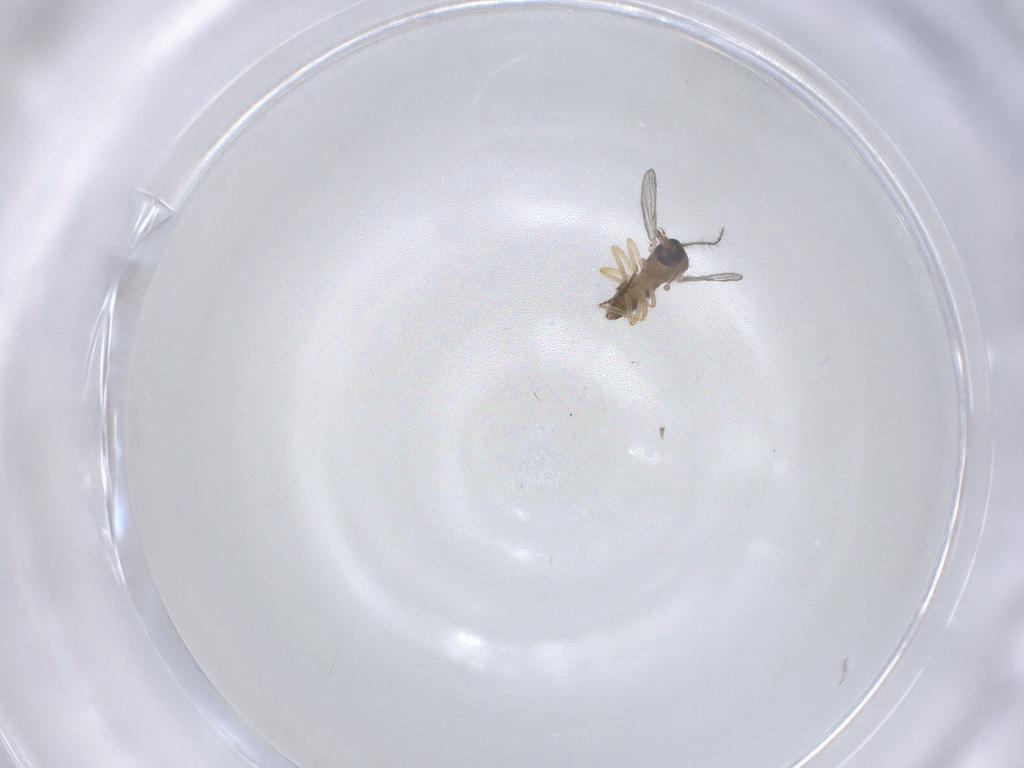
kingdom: Animalia
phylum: Arthropoda
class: Insecta
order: Diptera
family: Ceratopogonidae
